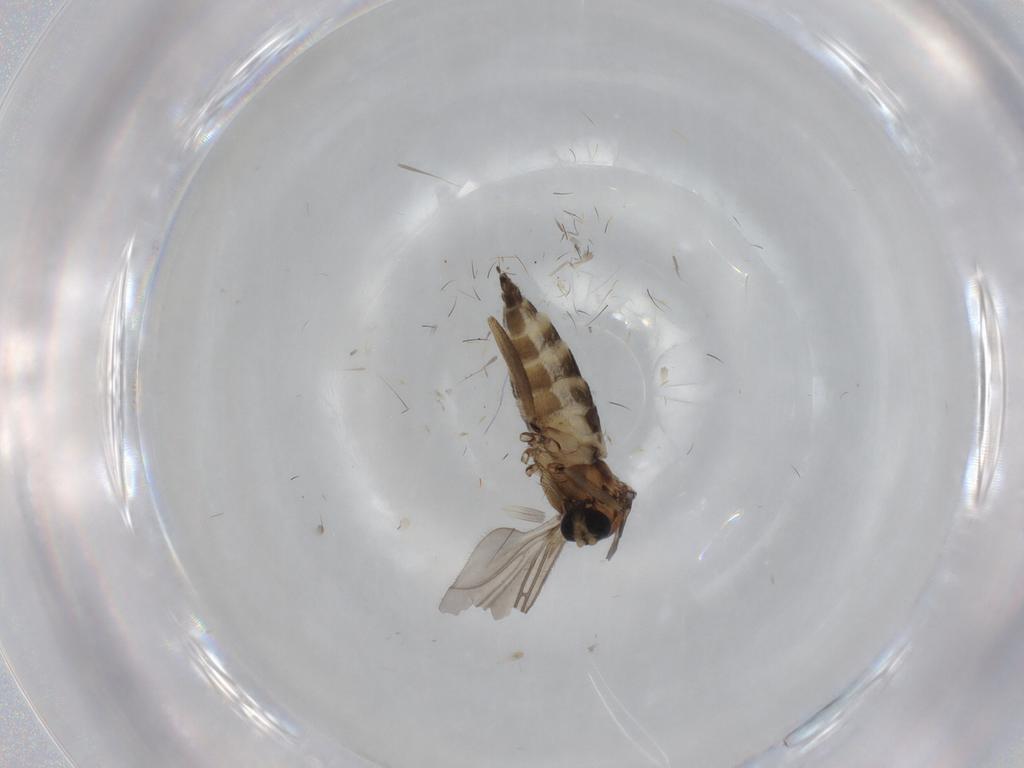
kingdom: Animalia
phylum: Arthropoda
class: Insecta
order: Diptera
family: Sciaridae
